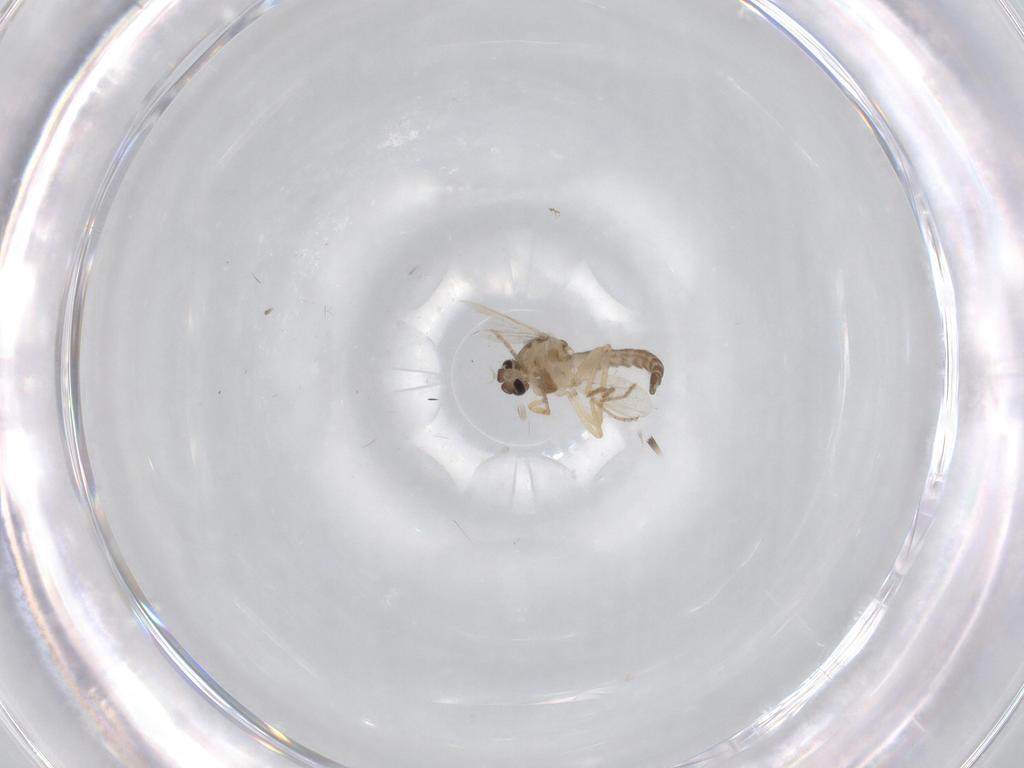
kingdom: Animalia
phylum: Arthropoda
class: Insecta
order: Diptera
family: Ceratopogonidae
